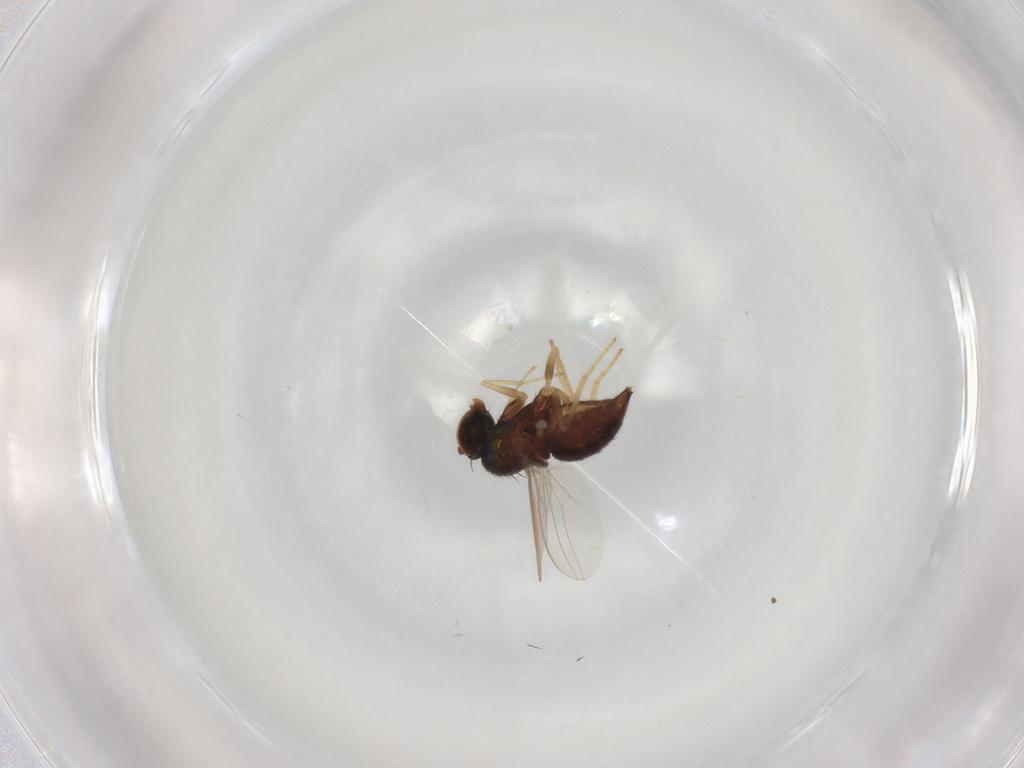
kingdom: Animalia
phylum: Arthropoda
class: Insecta
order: Diptera
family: Dolichopodidae
